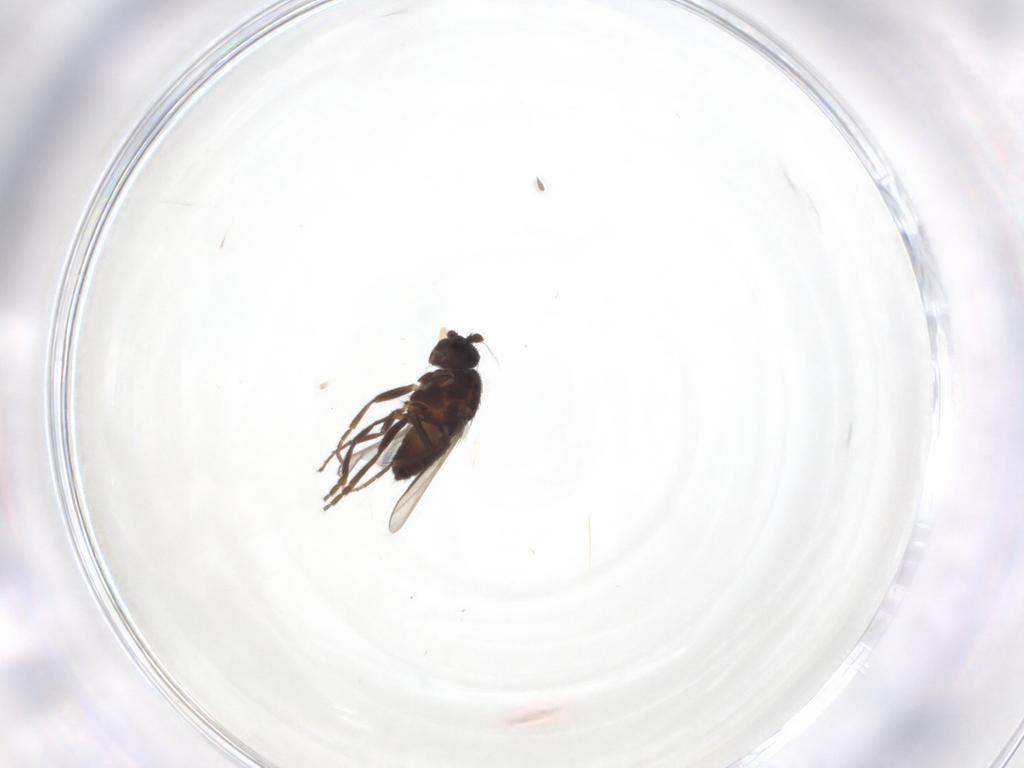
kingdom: Animalia
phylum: Arthropoda
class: Insecta
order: Diptera
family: Sphaeroceridae
